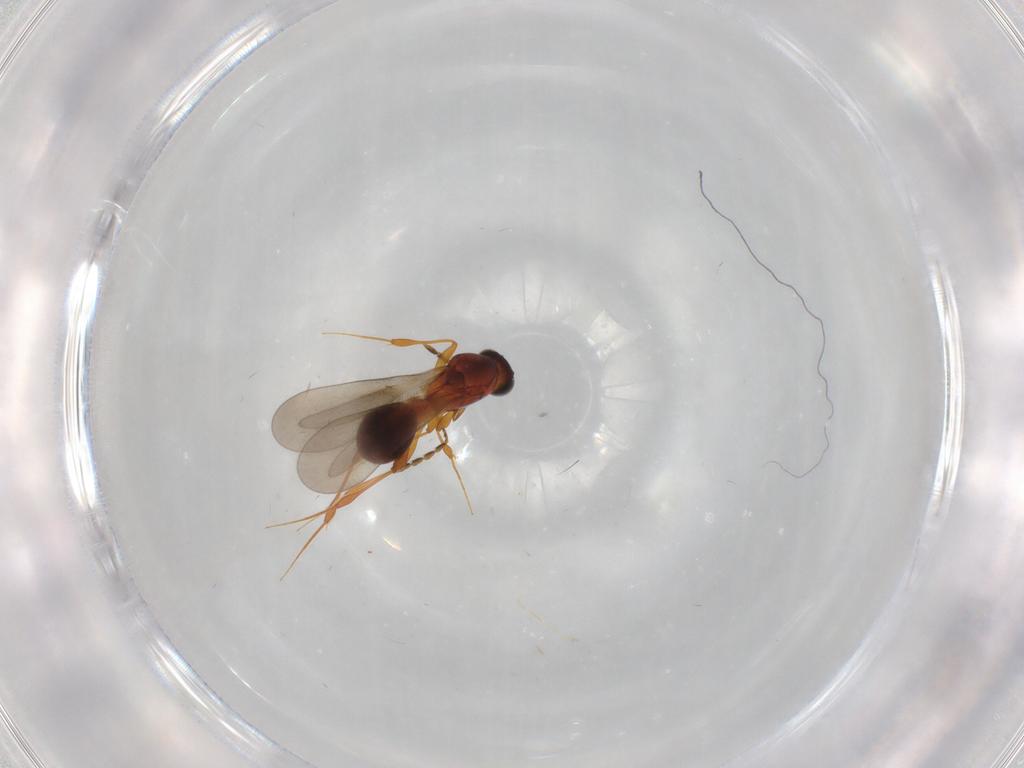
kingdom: Animalia
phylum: Arthropoda
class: Insecta
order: Hymenoptera
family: Platygastridae
